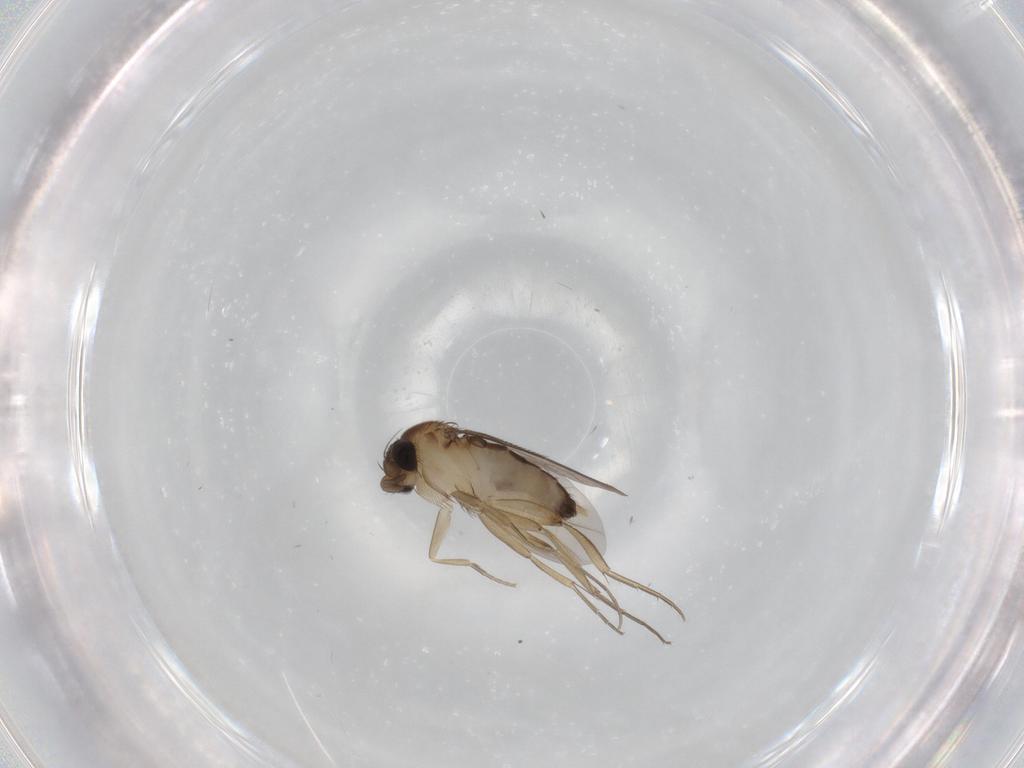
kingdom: Animalia
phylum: Arthropoda
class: Insecta
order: Diptera
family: Phoridae
